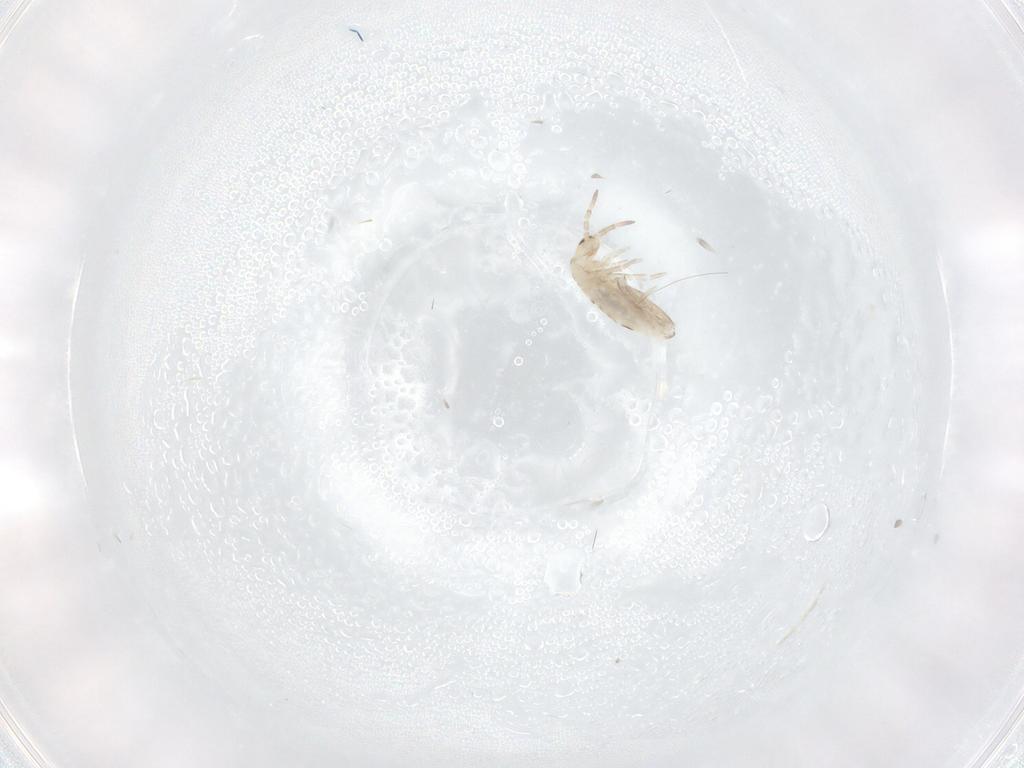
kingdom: Animalia
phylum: Arthropoda
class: Collembola
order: Entomobryomorpha
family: Entomobryidae
